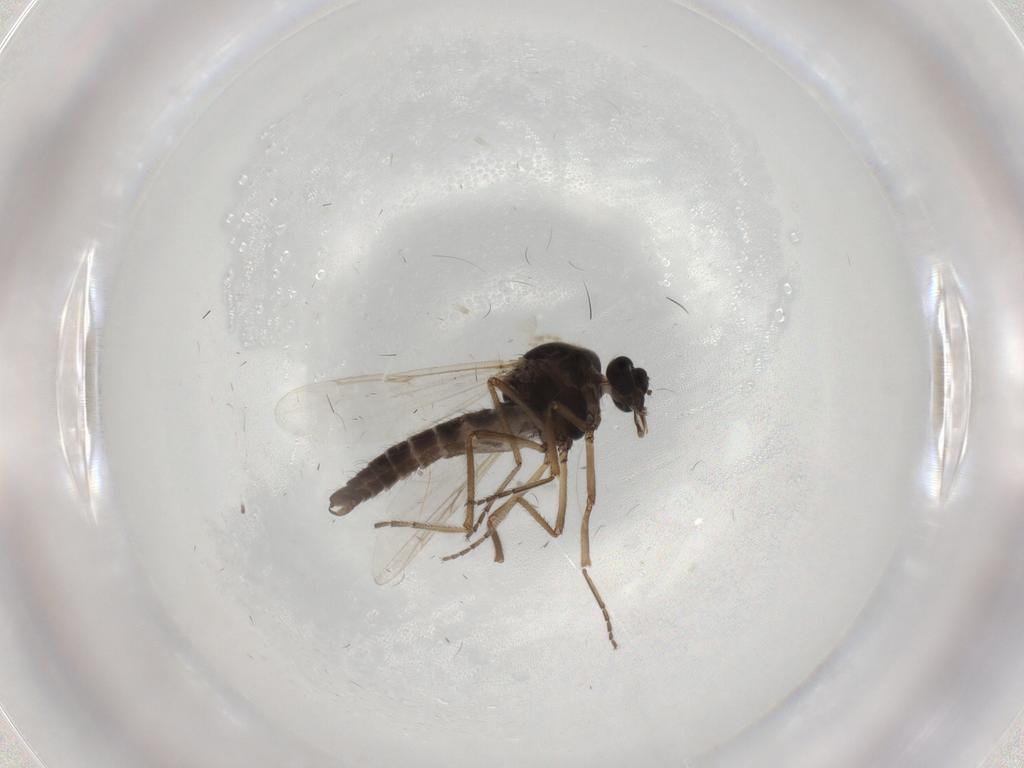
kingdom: Animalia
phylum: Arthropoda
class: Insecta
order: Diptera
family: Ceratopogonidae
